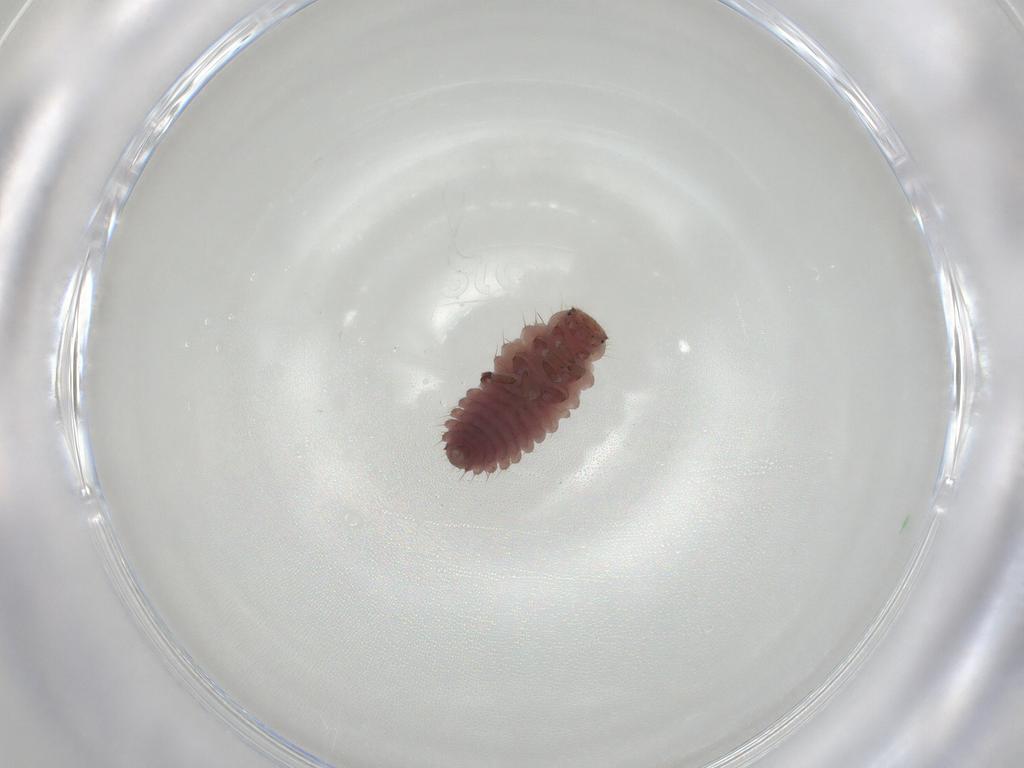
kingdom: Animalia
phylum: Arthropoda
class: Insecta
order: Coleoptera
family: Coccinellidae
